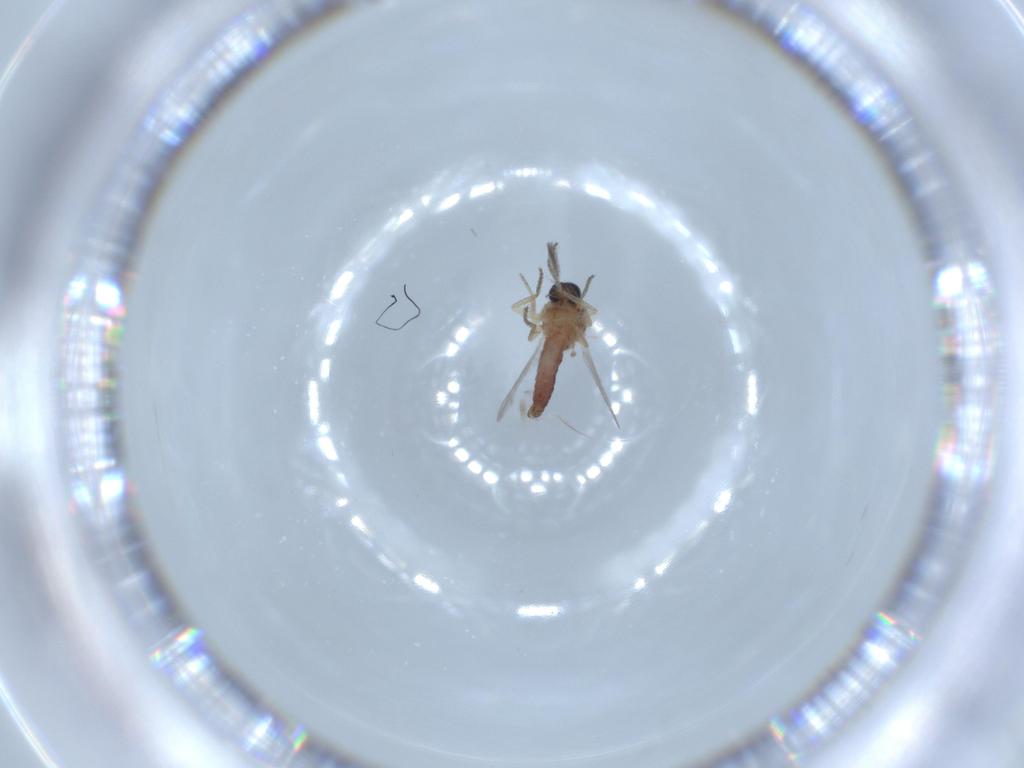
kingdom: Animalia
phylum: Arthropoda
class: Insecta
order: Diptera
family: Ceratopogonidae
